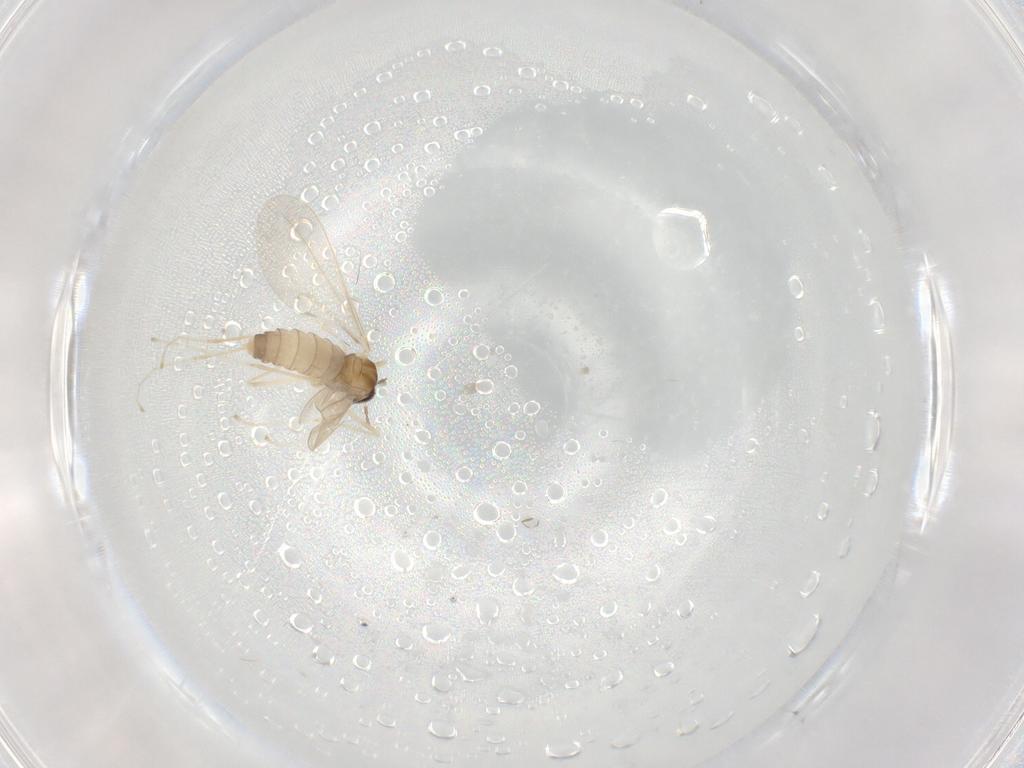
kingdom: Animalia
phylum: Arthropoda
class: Insecta
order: Diptera
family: Cecidomyiidae
